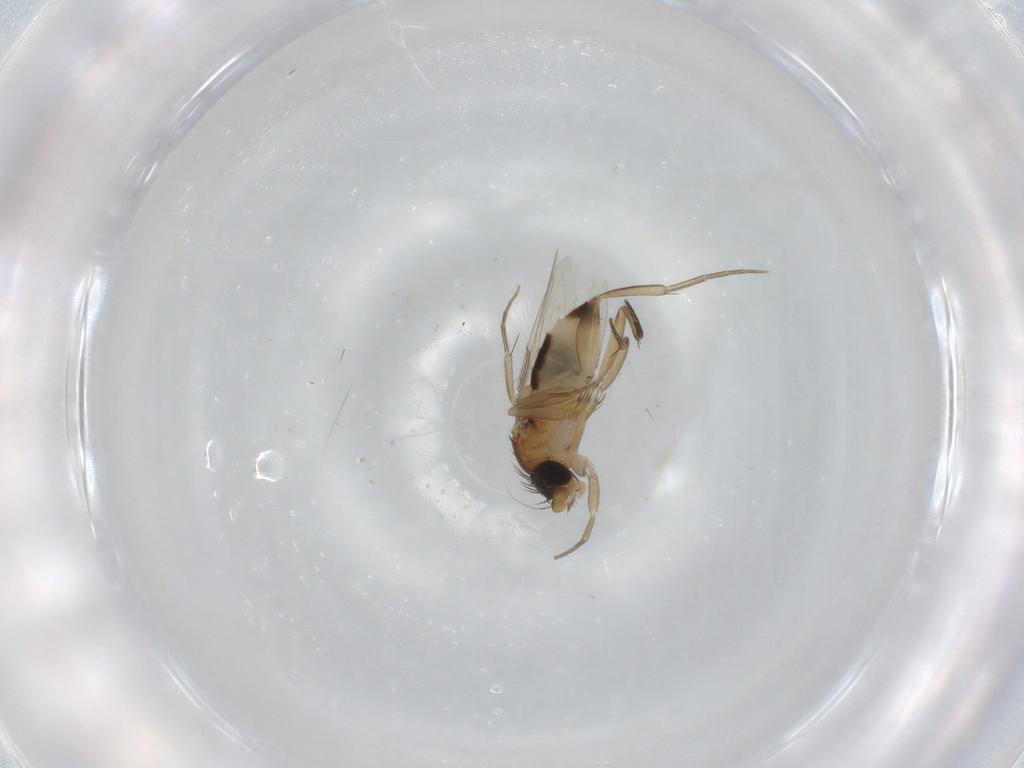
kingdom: Animalia
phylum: Arthropoda
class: Insecta
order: Diptera
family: Phoridae
